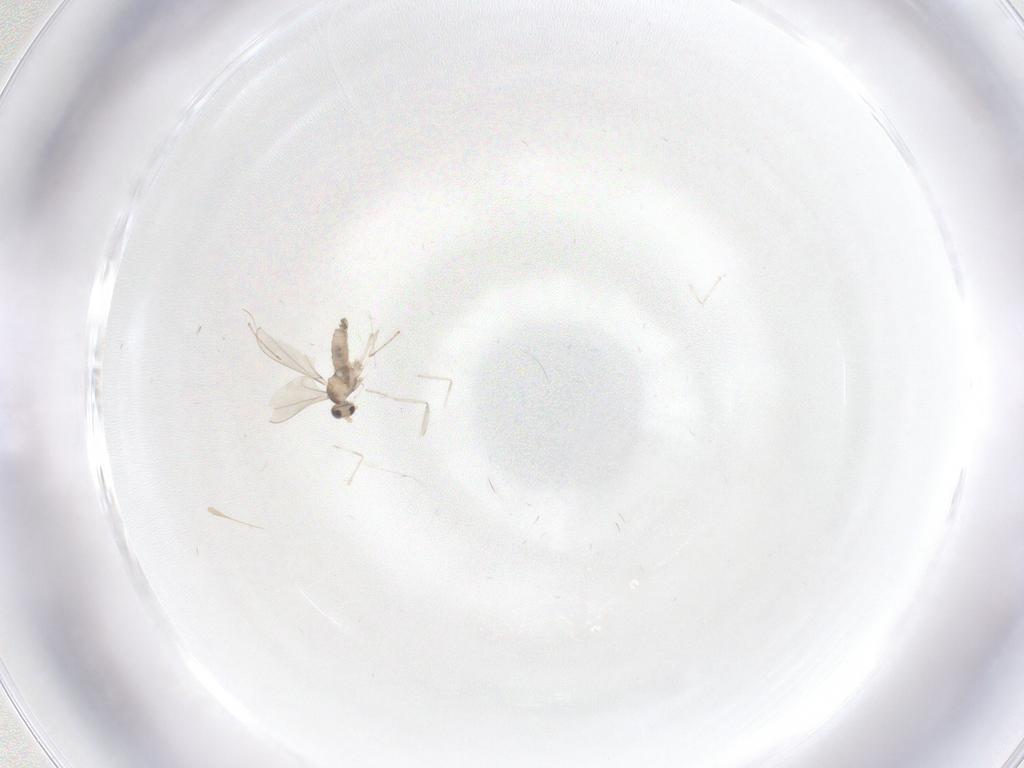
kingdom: Animalia
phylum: Arthropoda
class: Insecta
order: Diptera
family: Cecidomyiidae
